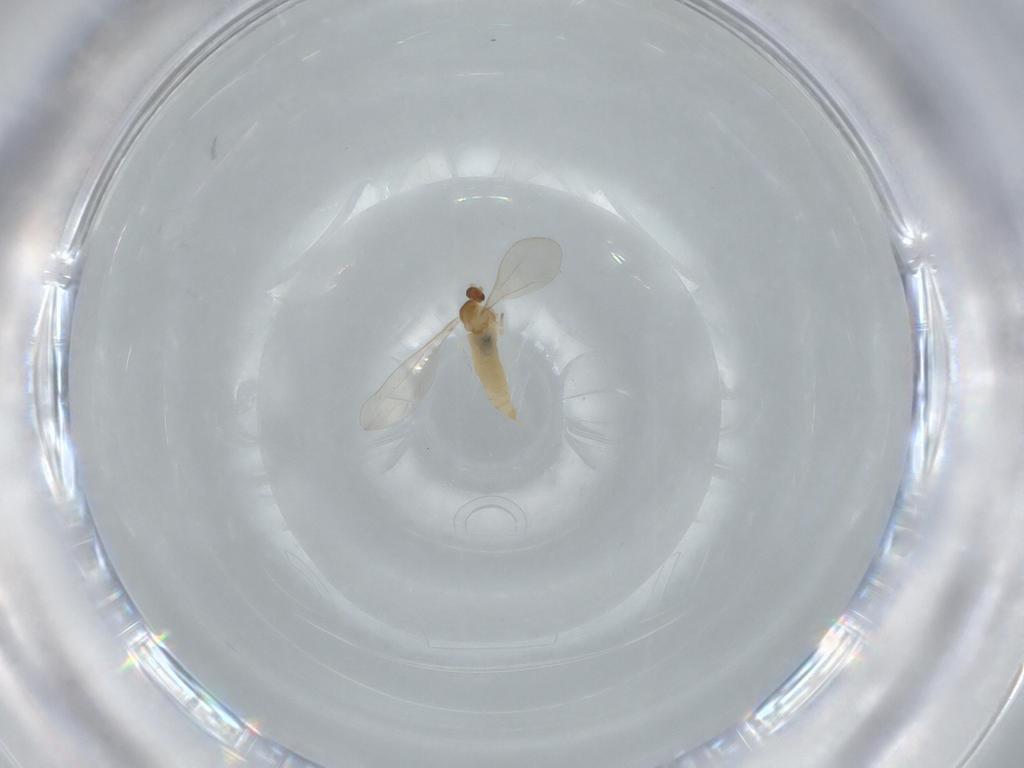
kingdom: Animalia
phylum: Arthropoda
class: Insecta
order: Diptera
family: Cecidomyiidae
